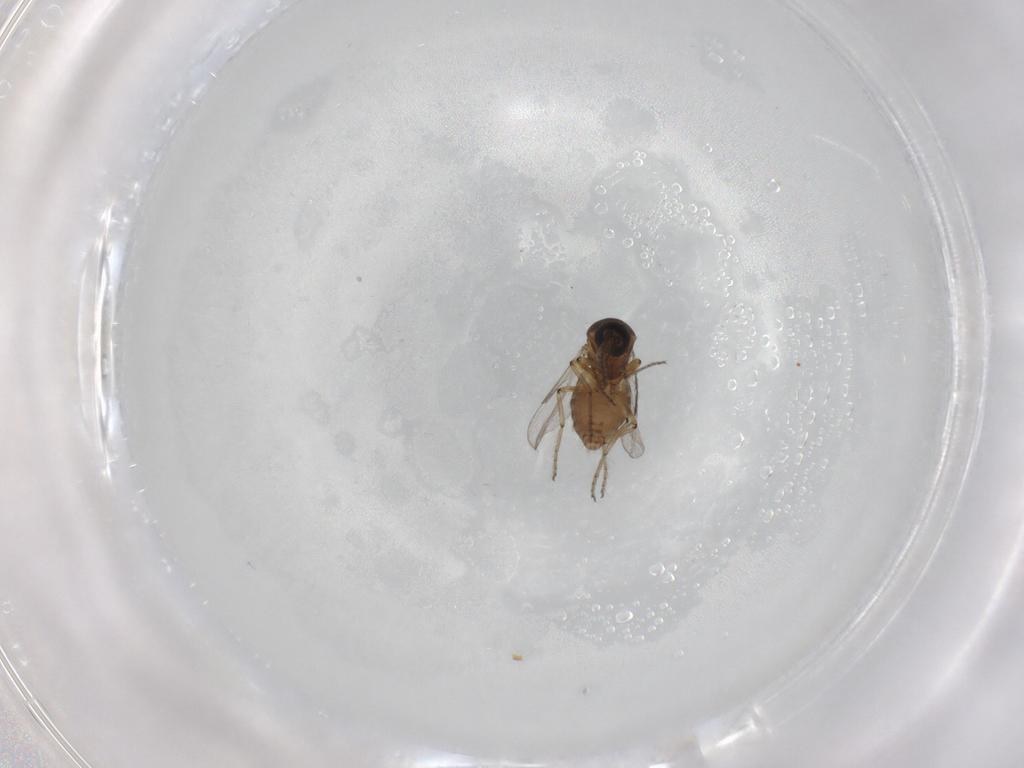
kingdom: Animalia
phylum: Arthropoda
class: Insecta
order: Diptera
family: Ceratopogonidae
